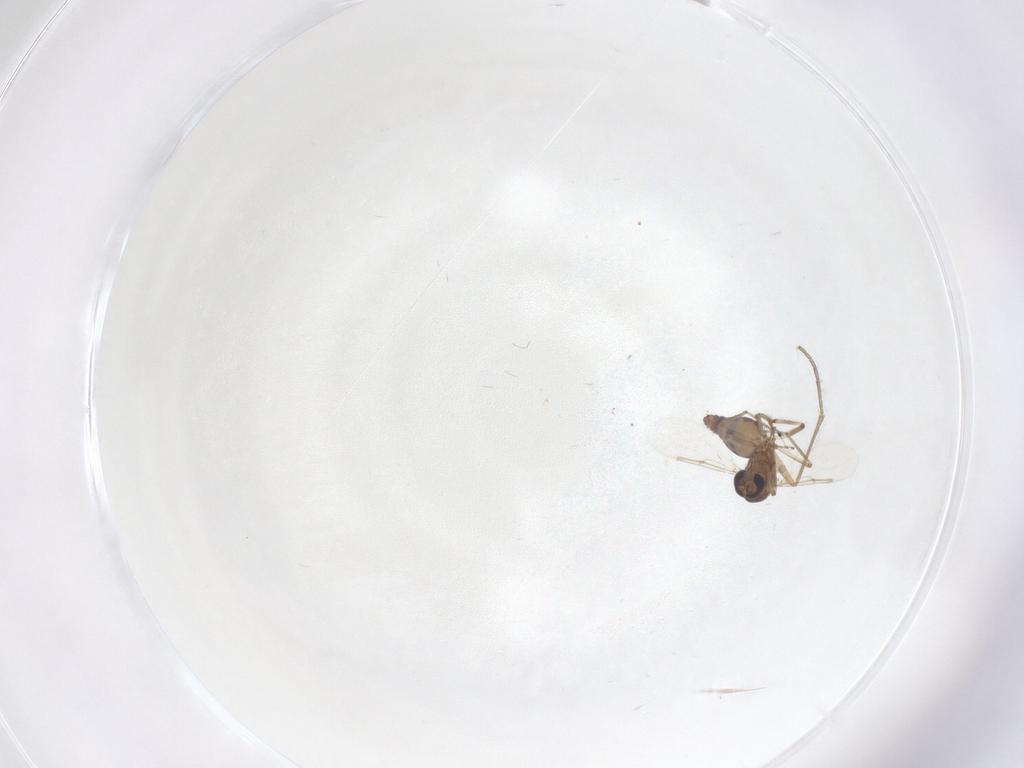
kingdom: Animalia
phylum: Arthropoda
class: Insecta
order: Diptera
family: Ceratopogonidae
